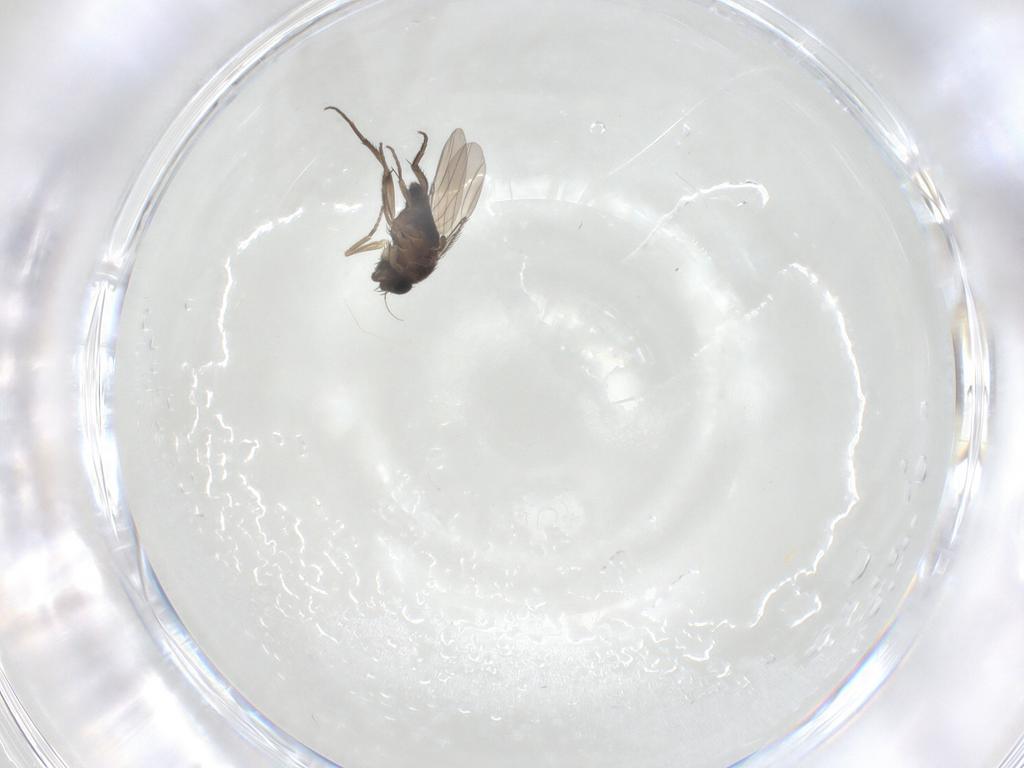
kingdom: Animalia
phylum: Arthropoda
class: Insecta
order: Diptera
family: Phoridae
